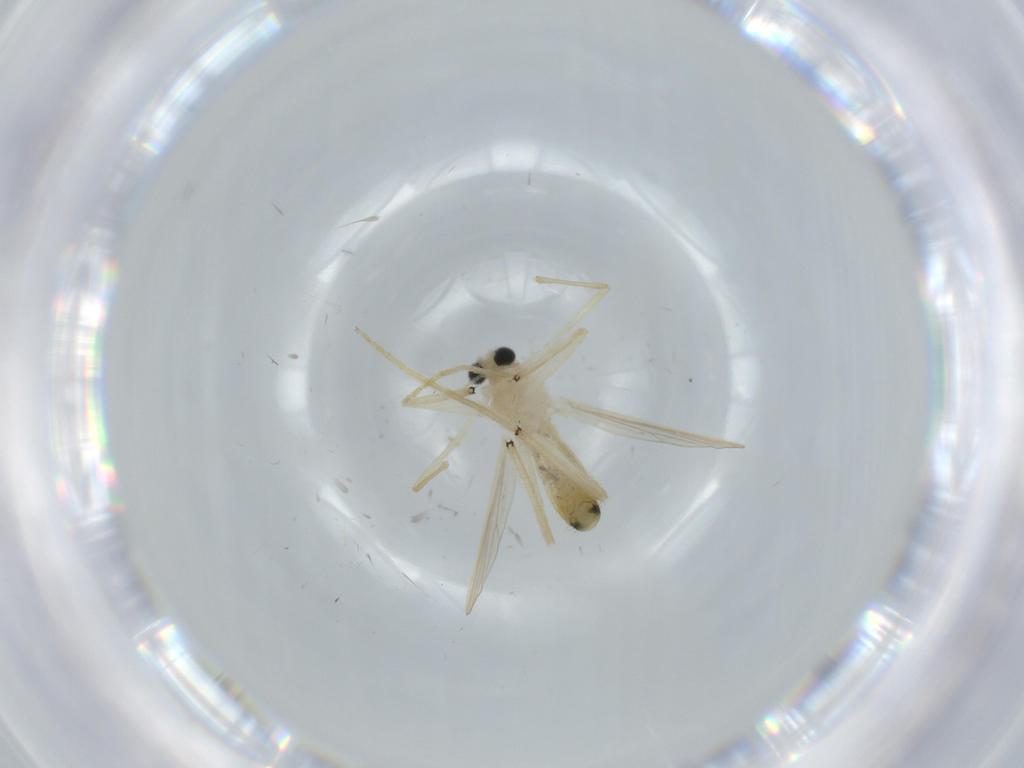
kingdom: Animalia
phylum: Arthropoda
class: Insecta
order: Diptera
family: Chironomidae
